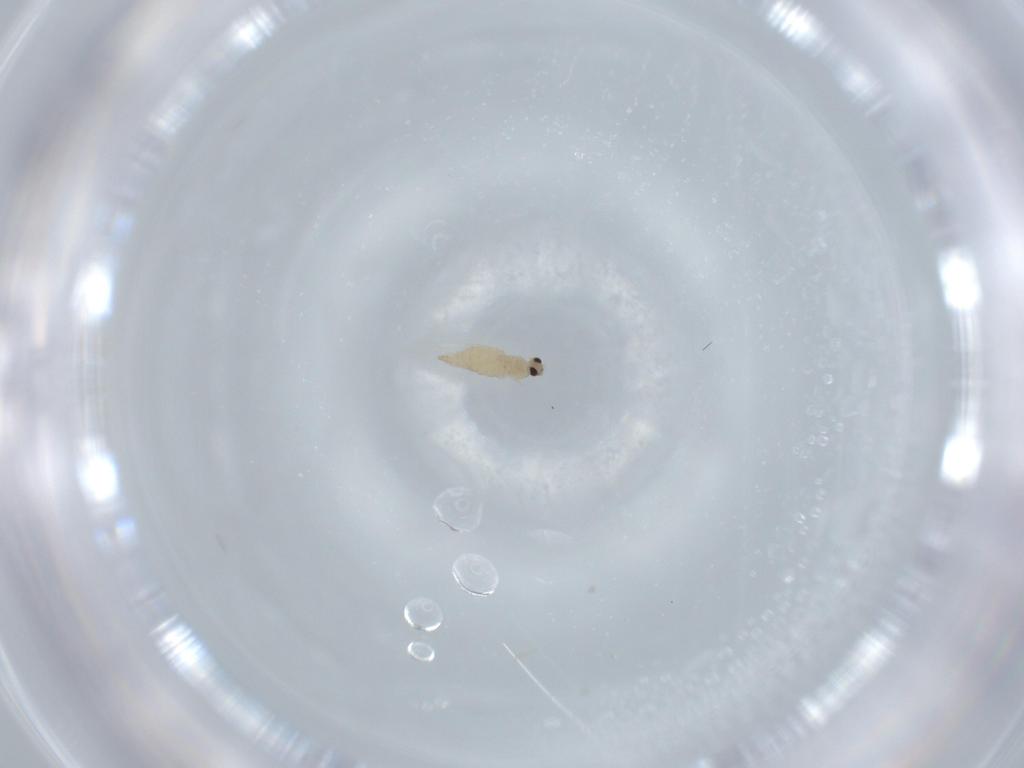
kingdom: Animalia
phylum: Arthropoda
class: Insecta
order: Diptera
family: Cecidomyiidae
